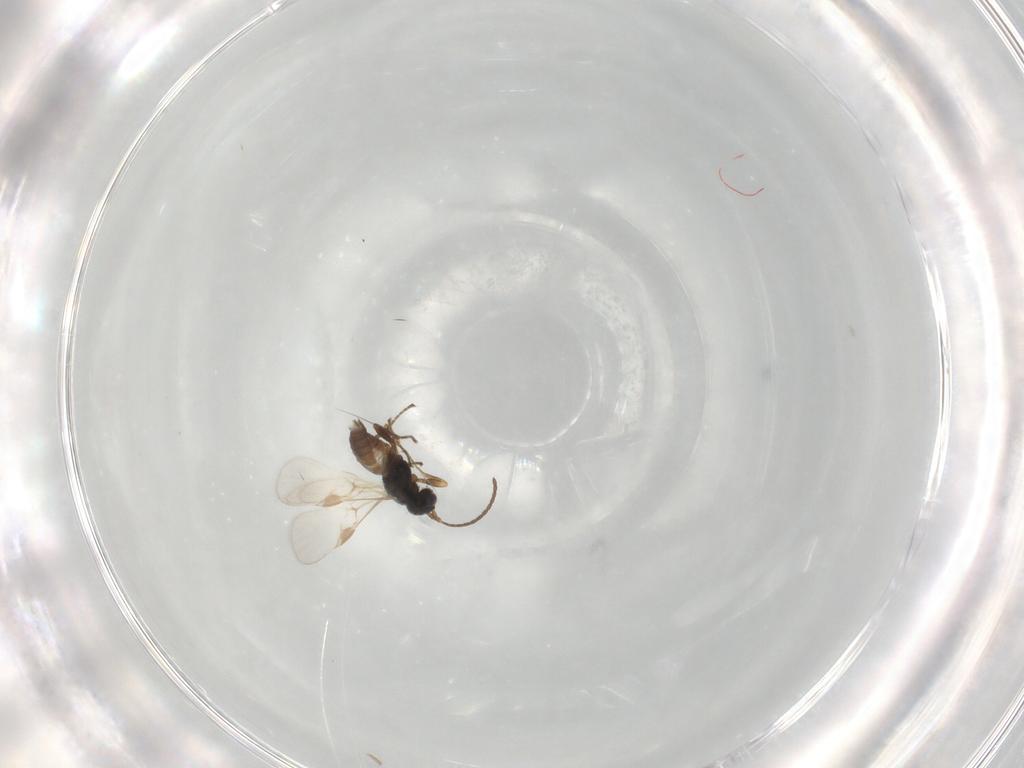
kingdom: Animalia
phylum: Arthropoda
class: Insecta
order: Hymenoptera
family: Braconidae
